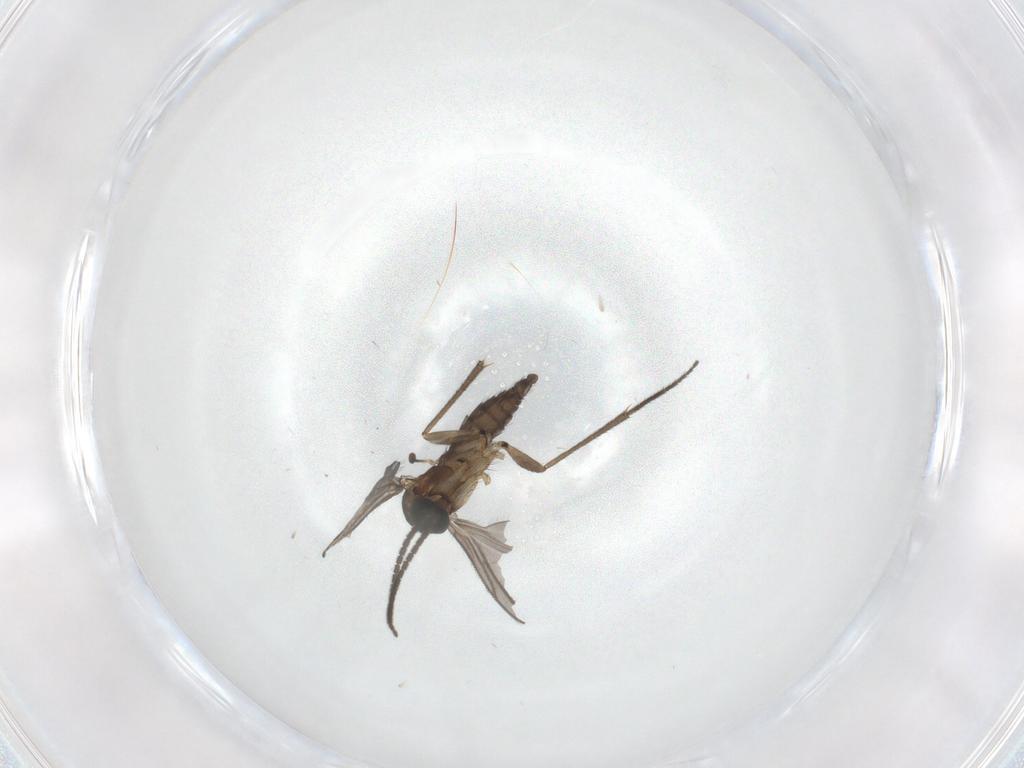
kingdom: Animalia
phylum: Arthropoda
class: Insecta
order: Diptera
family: Sciaridae
